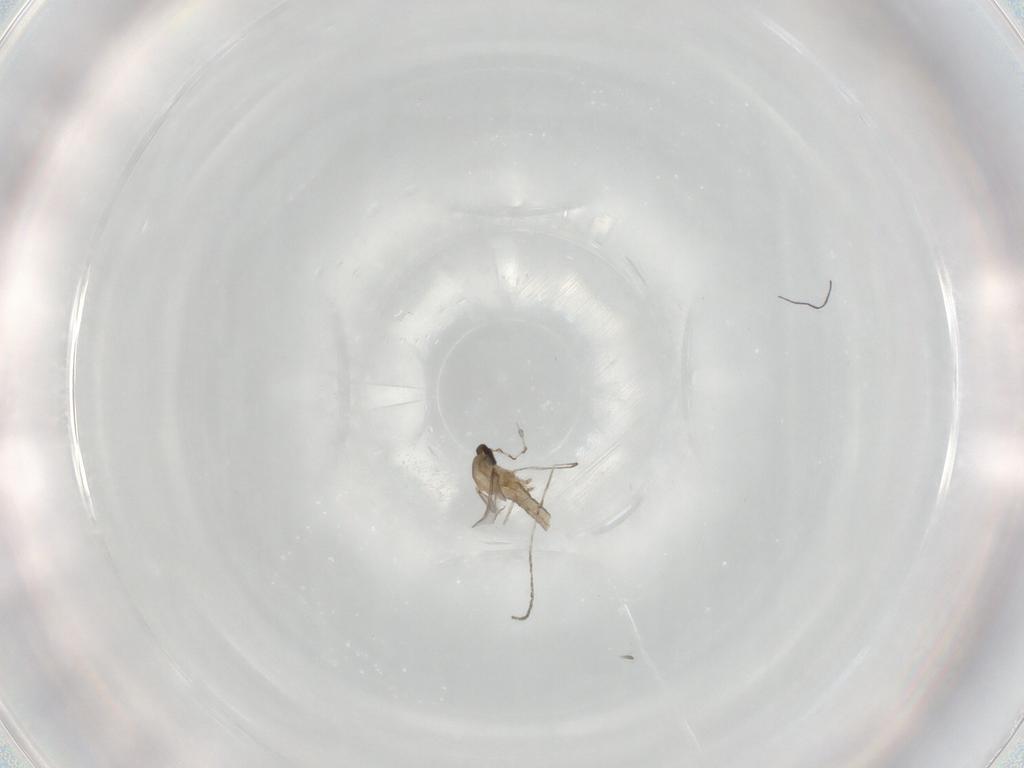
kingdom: Animalia
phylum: Arthropoda
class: Insecta
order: Diptera
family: Cecidomyiidae
